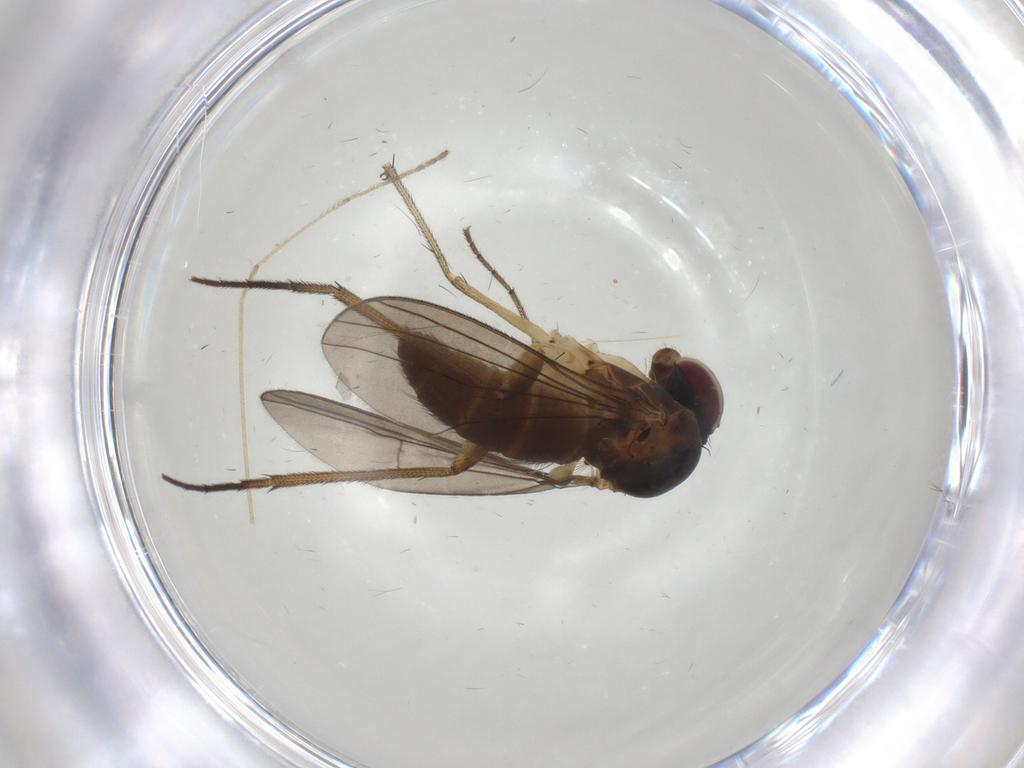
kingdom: Animalia
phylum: Arthropoda
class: Insecta
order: Diptera
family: Dolichopodidae
